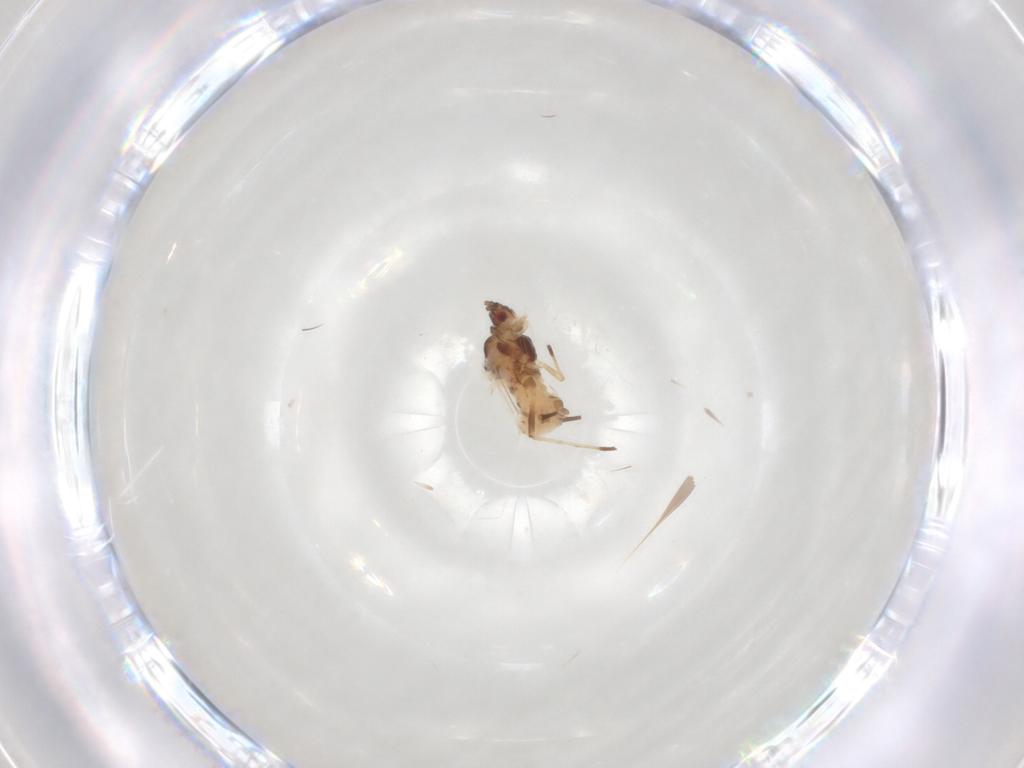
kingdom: Animalia
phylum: Arthropoda
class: Insecta
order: Hemiptera
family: Aphididae
